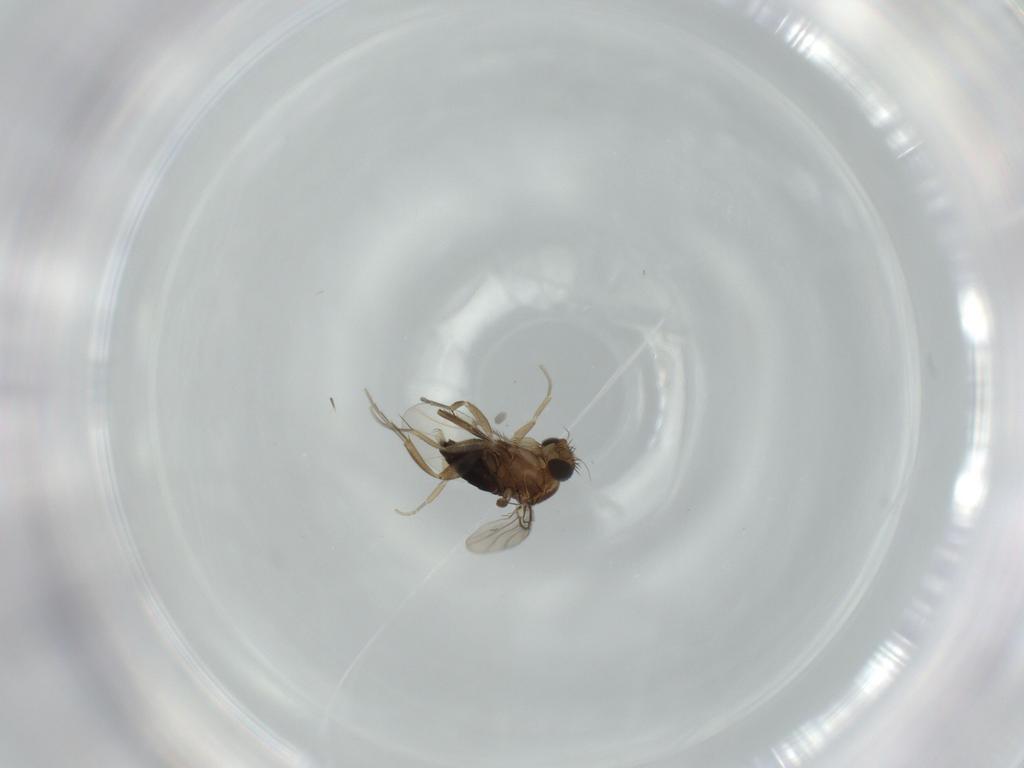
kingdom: Animalia
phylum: Arthropoda
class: Insecta
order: Diptera
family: Phoridae
